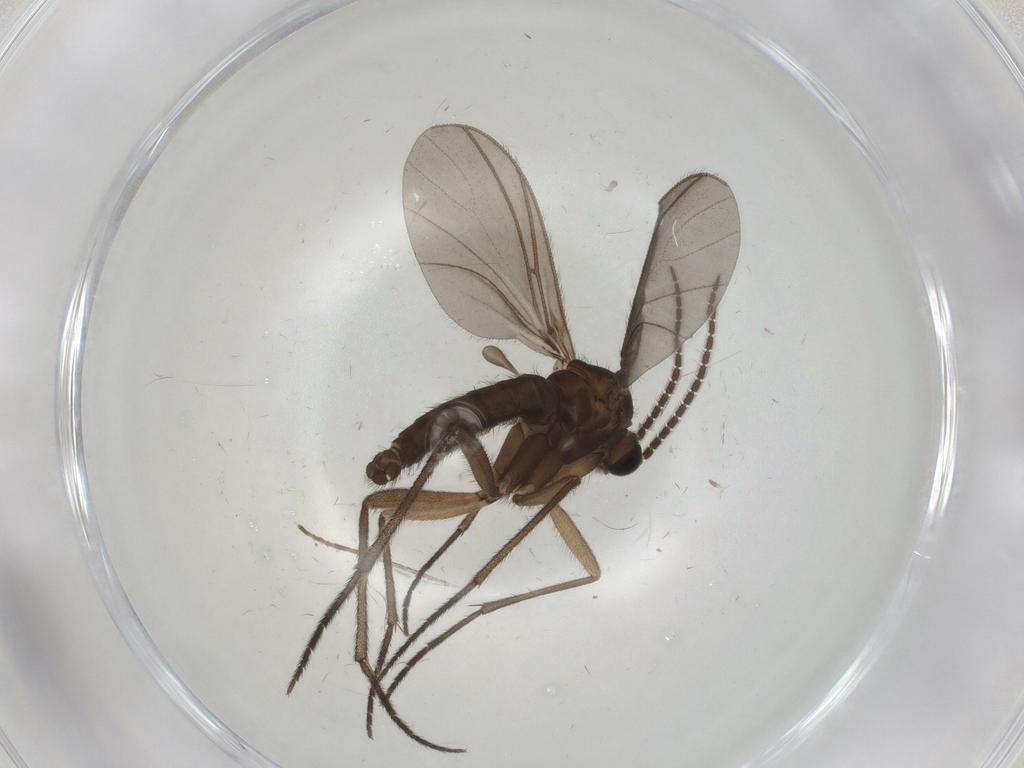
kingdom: Animalia
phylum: Arthropoda
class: Insecta
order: Diptera
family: Sciaridae
